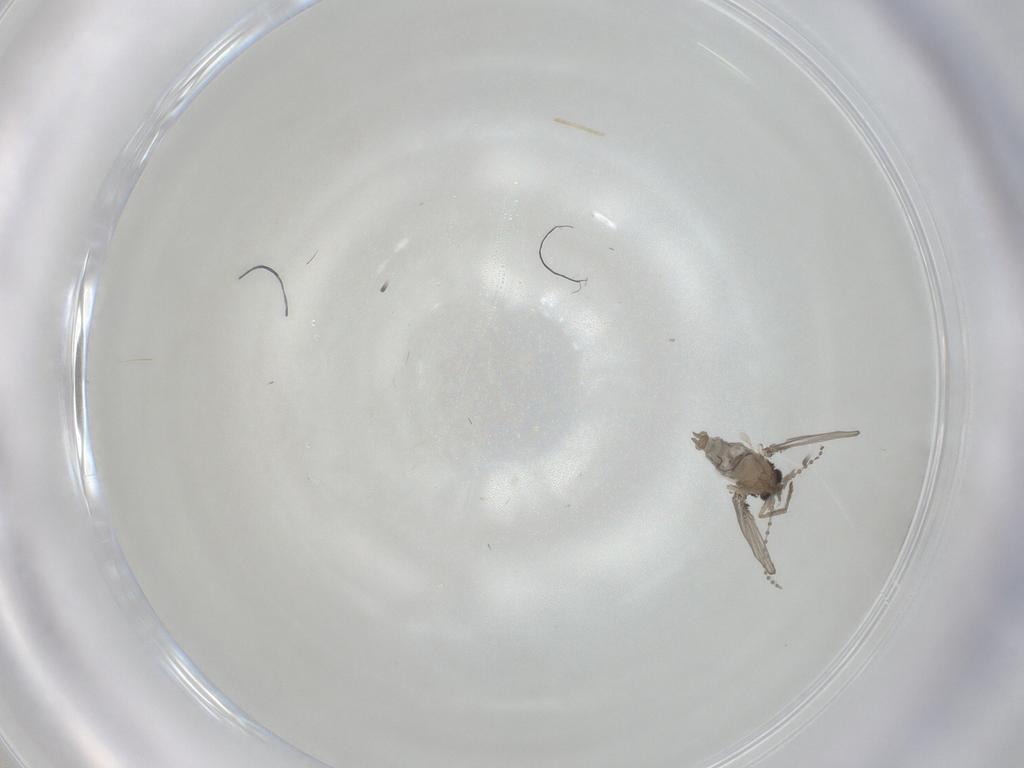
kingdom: Animalia
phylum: Arthropoda
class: Insecta
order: Diptera
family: Psychodidae
